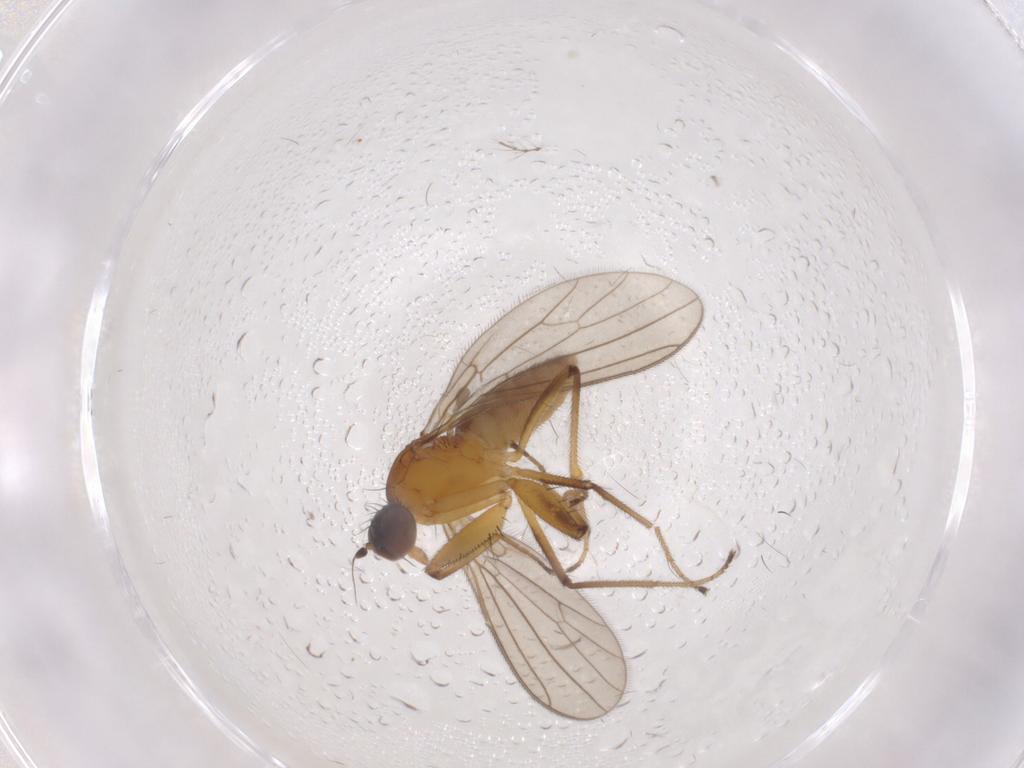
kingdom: Animalia
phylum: Arthropoda
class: Insecta
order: Diptera
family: Empididae
